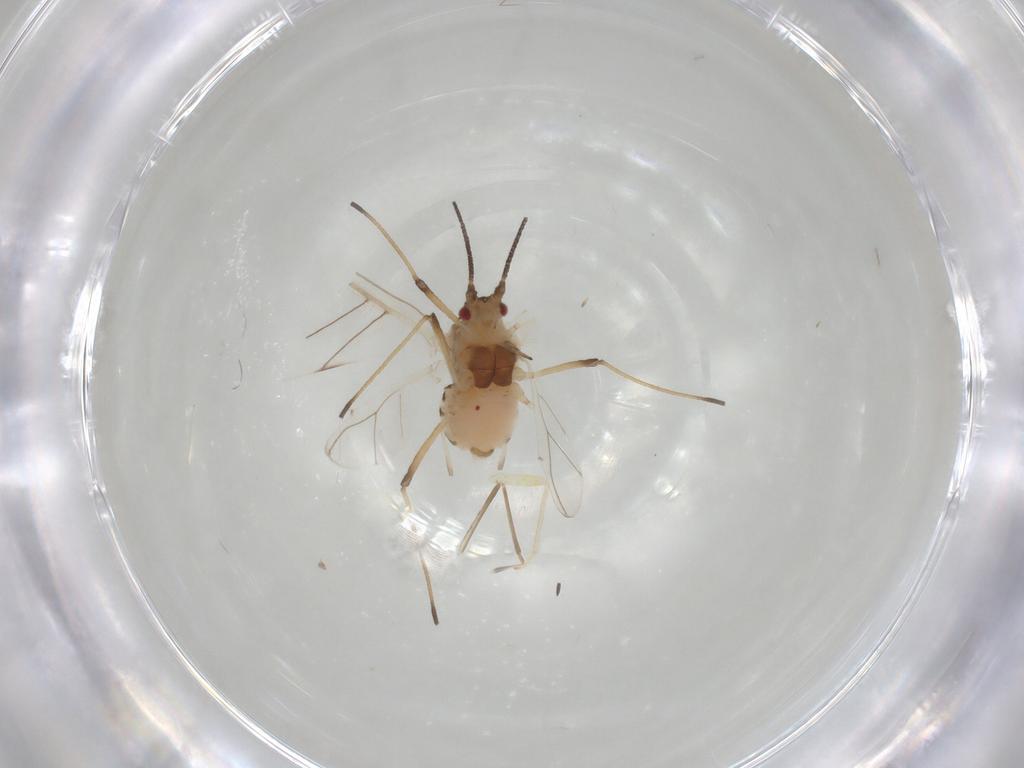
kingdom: Animalia
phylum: Arthropoda
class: Insecta
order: Hemiptera
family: Aphididae
